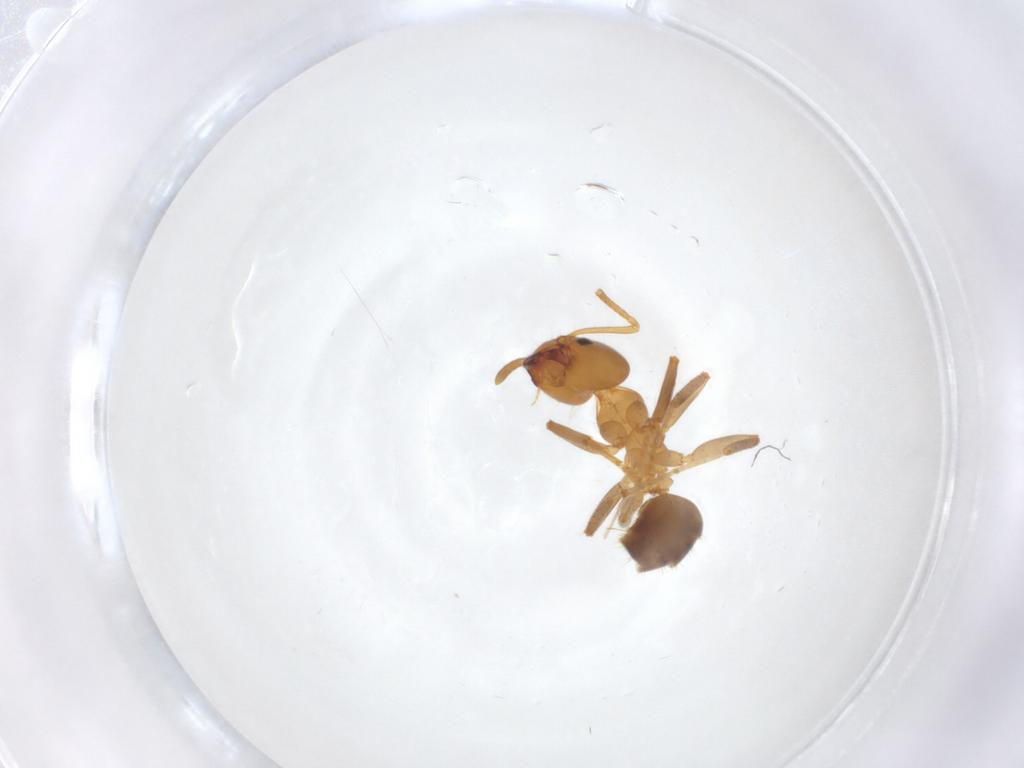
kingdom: Animalia
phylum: Arthropoda
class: Insecta
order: Hymenoptera
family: Formicidae
